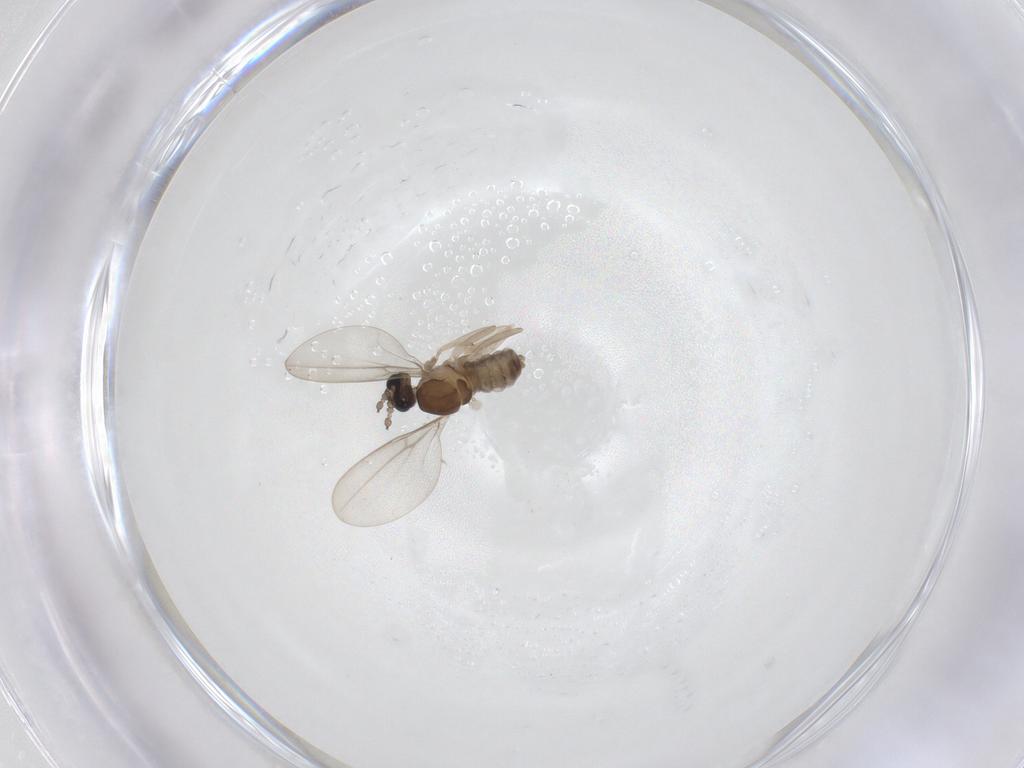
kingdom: Animalia
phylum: Arthropoda
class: Insecta
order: Diptera
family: Cecidomyiidae
